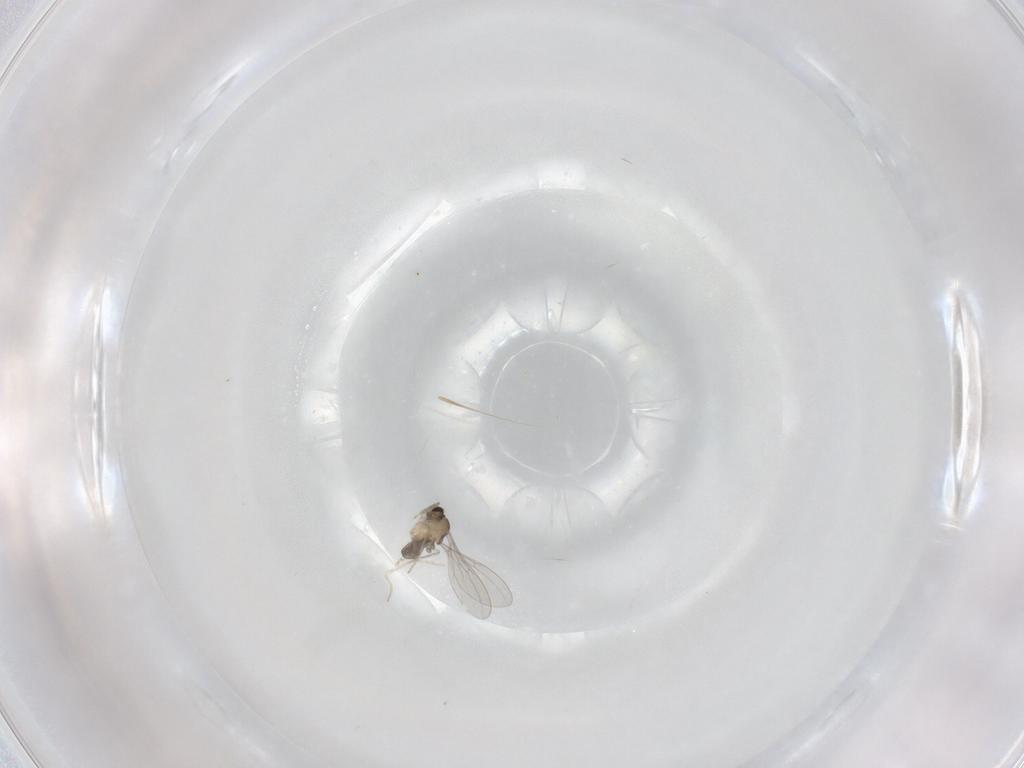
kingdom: Animalia
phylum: Arthropoda
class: Insecta
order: Diptera
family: Cecidomyiidae
